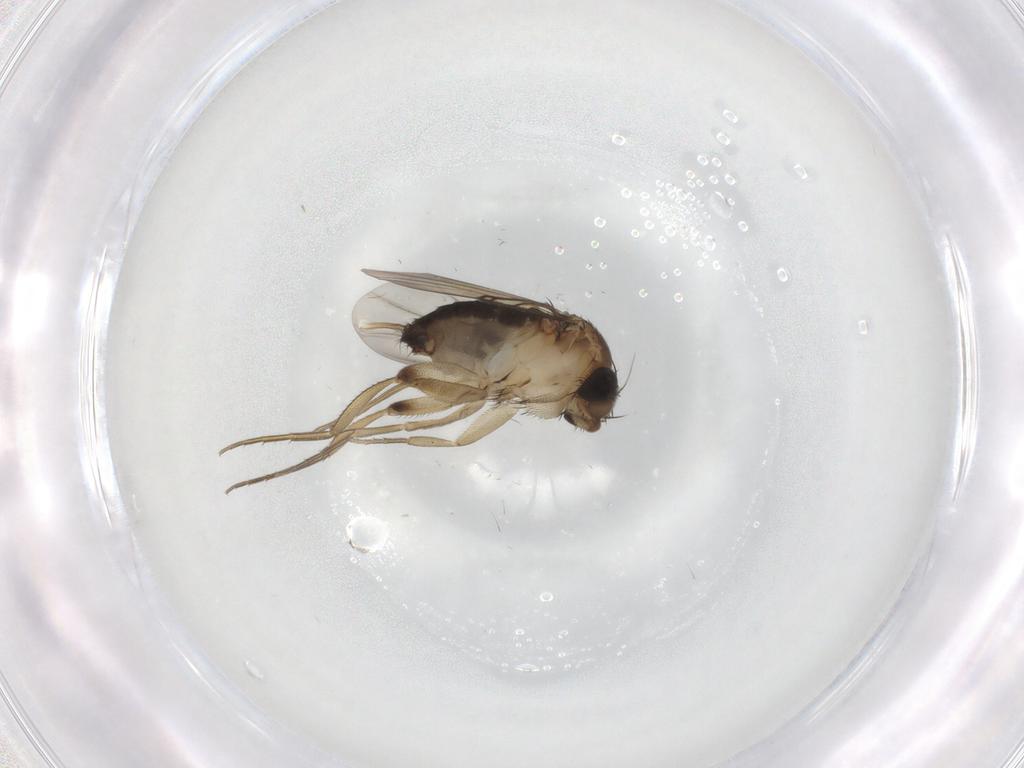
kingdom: Animalia
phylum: Arthropoda
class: Insecta
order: Diptera
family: Phoridae
